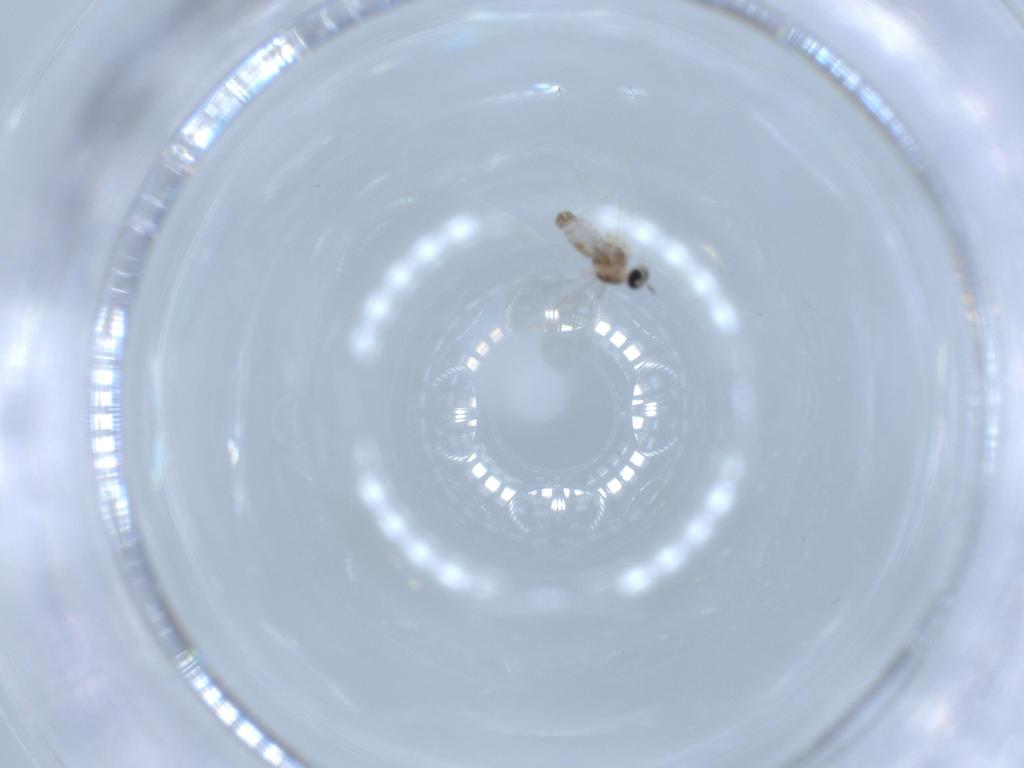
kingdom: Animalia
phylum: Arthropoda
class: Insecta
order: Diptera
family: Cecidomyiidae
